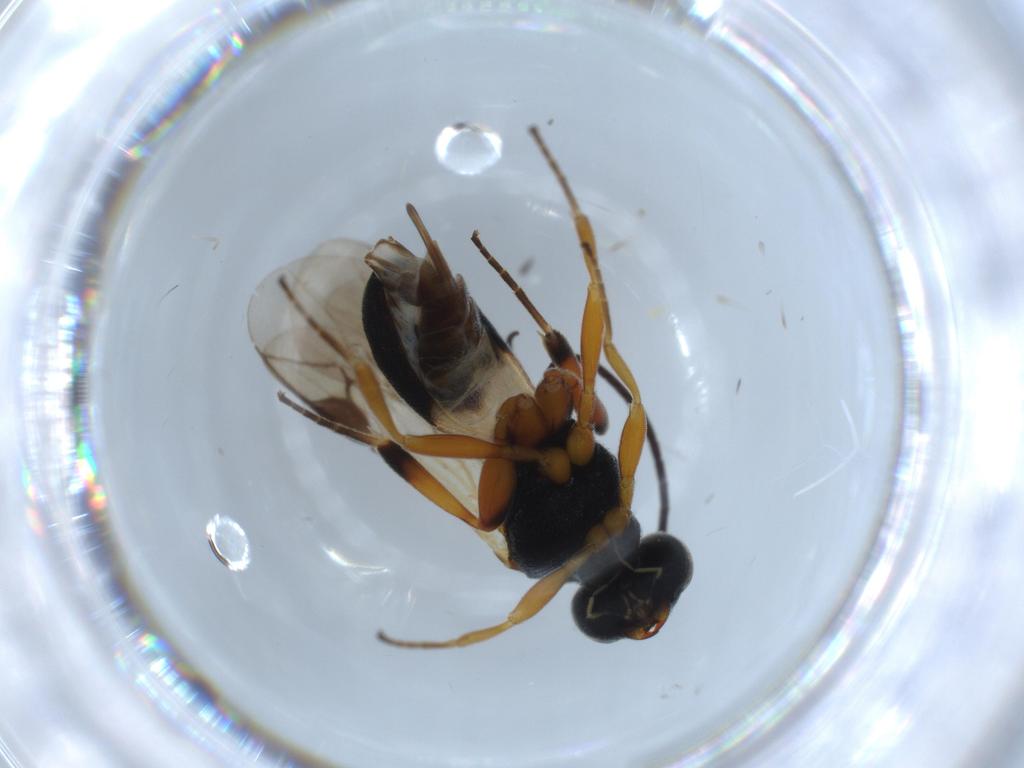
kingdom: Animalia
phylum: Arthropoda
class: Insecta
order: Hymenoptera
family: Braconidae
